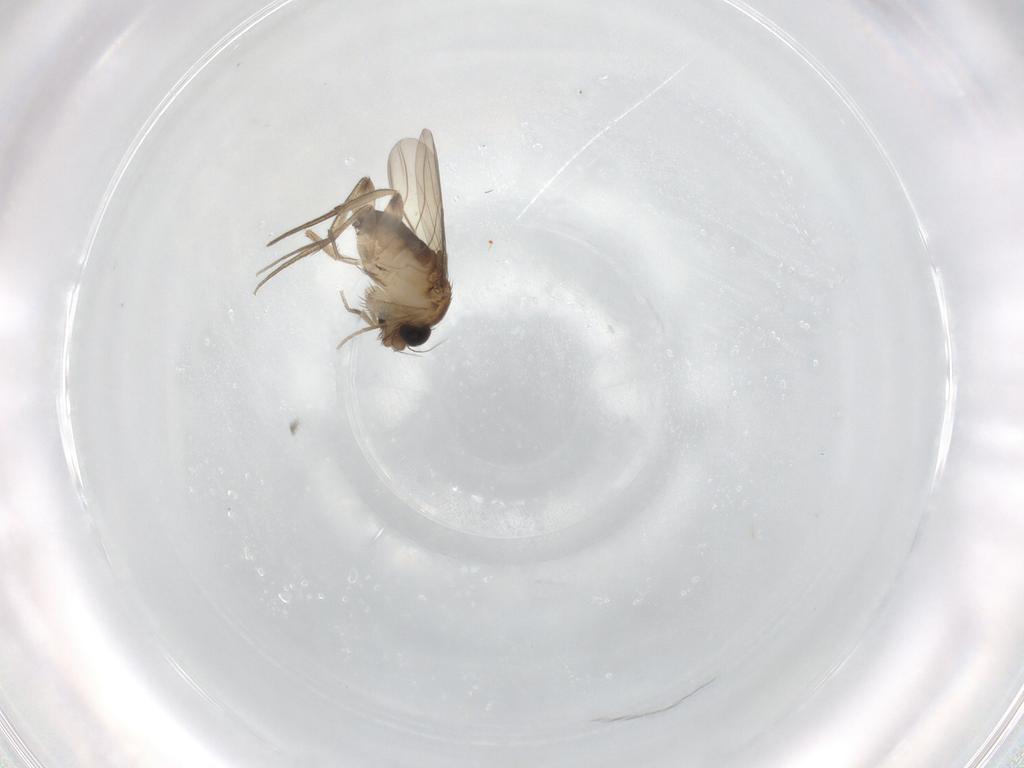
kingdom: Animalia
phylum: Arthropoda
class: Insecta
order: Diptera
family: Phoridae
